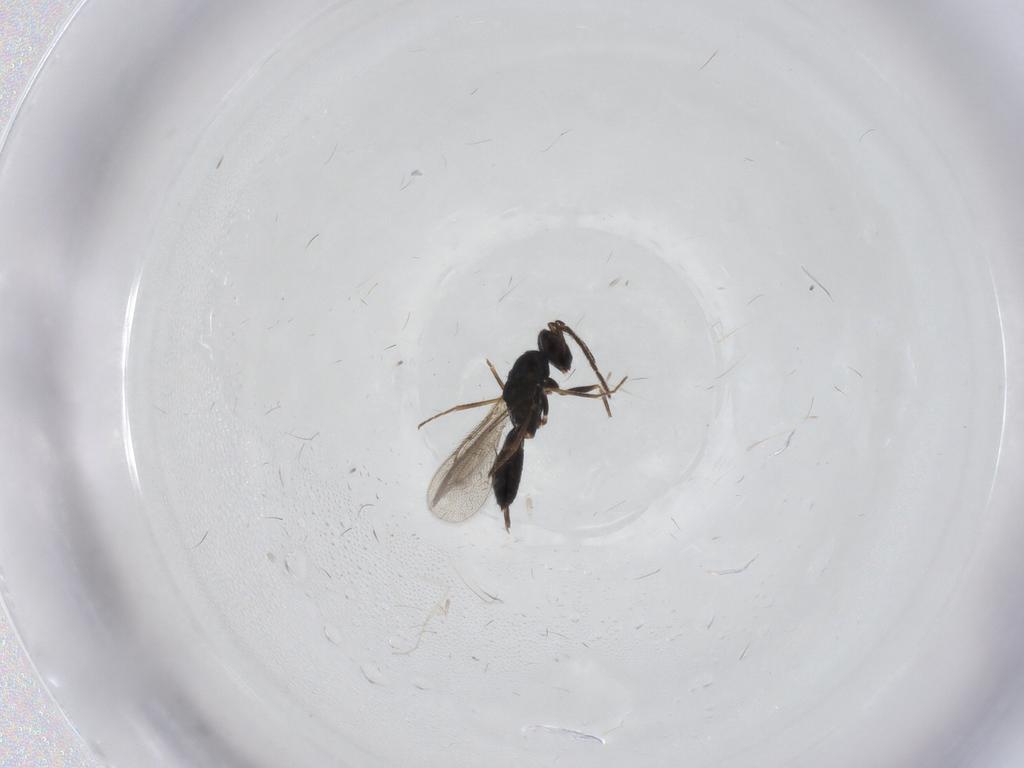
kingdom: Animalia
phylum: Arthropoda
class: Insecta
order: Hymenoptera
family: Eulophidae
